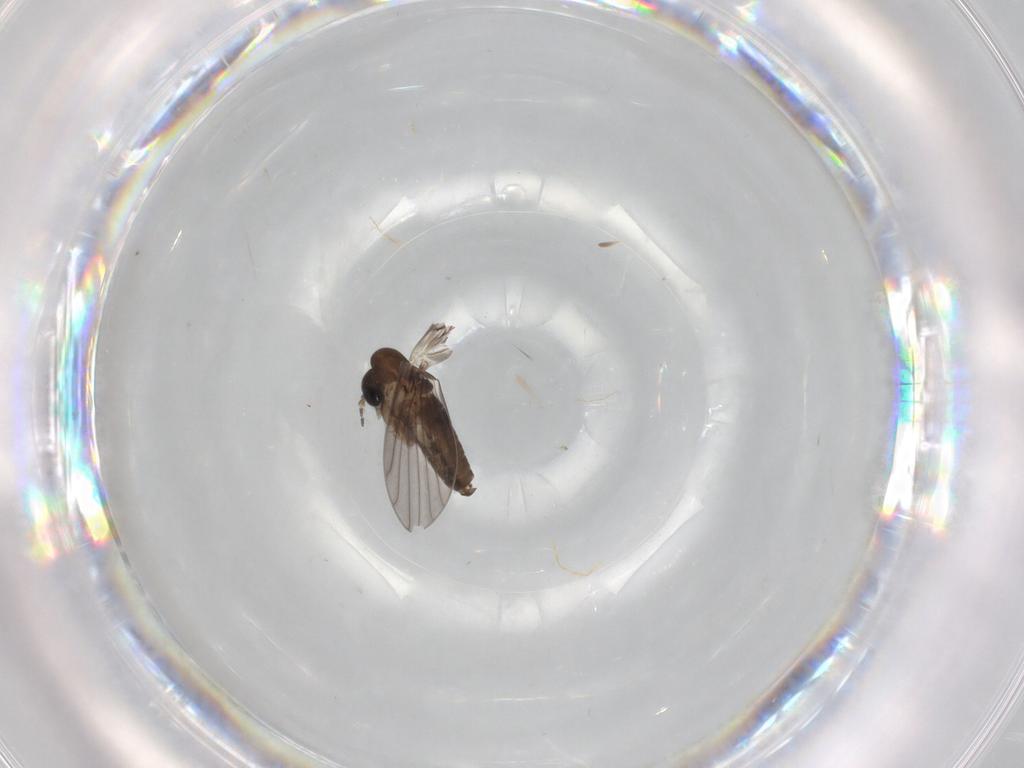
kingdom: Animalia
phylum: Arthropoda
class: Insecta
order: Diptera
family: Psychodidae
